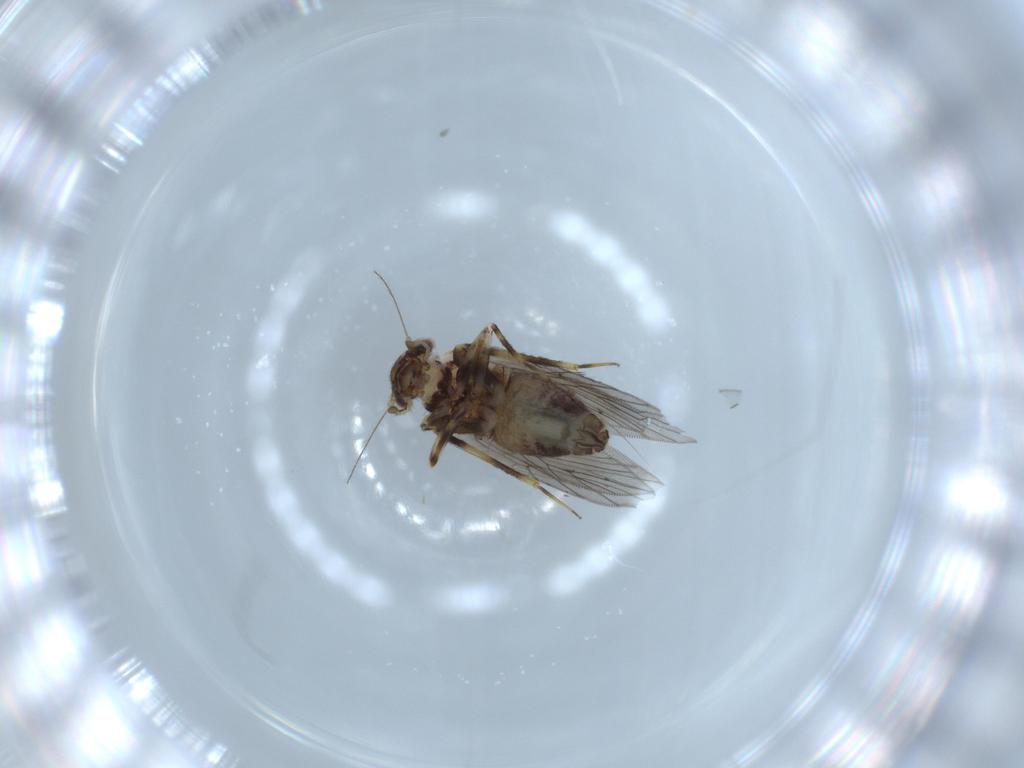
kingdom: Animalia
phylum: Arthropoda
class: Insecta
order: Psocodea
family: Lepidopsocidae
